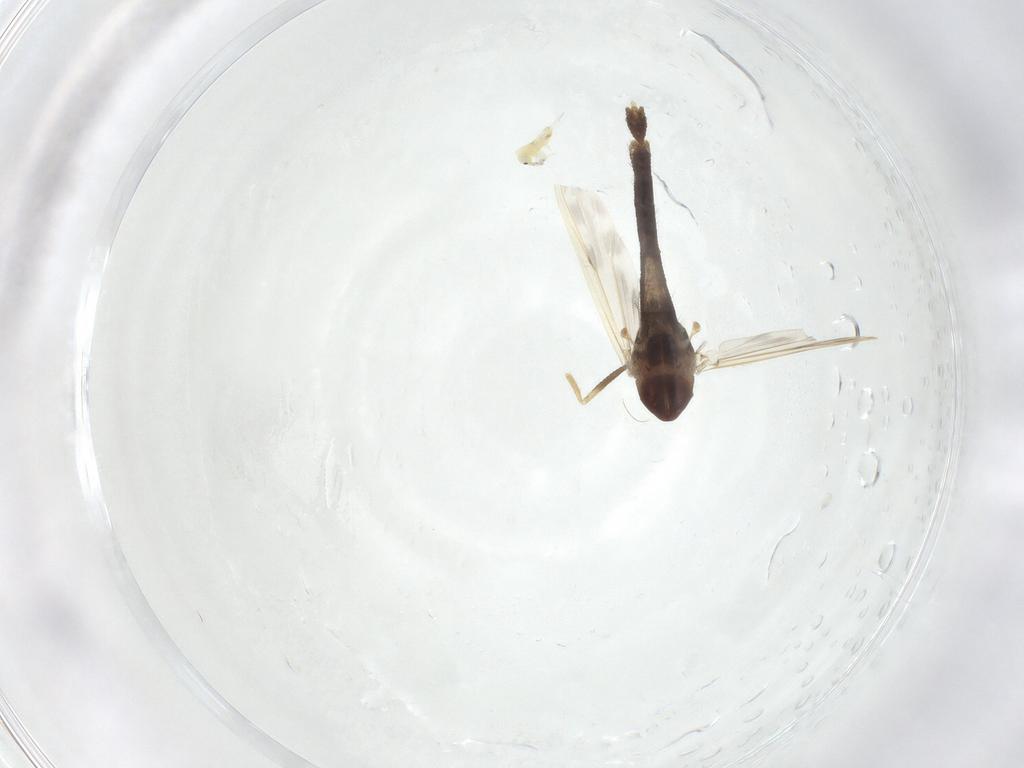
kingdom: Animalia
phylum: Arthropoda
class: Insecta
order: Diptera
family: Chironomidae
